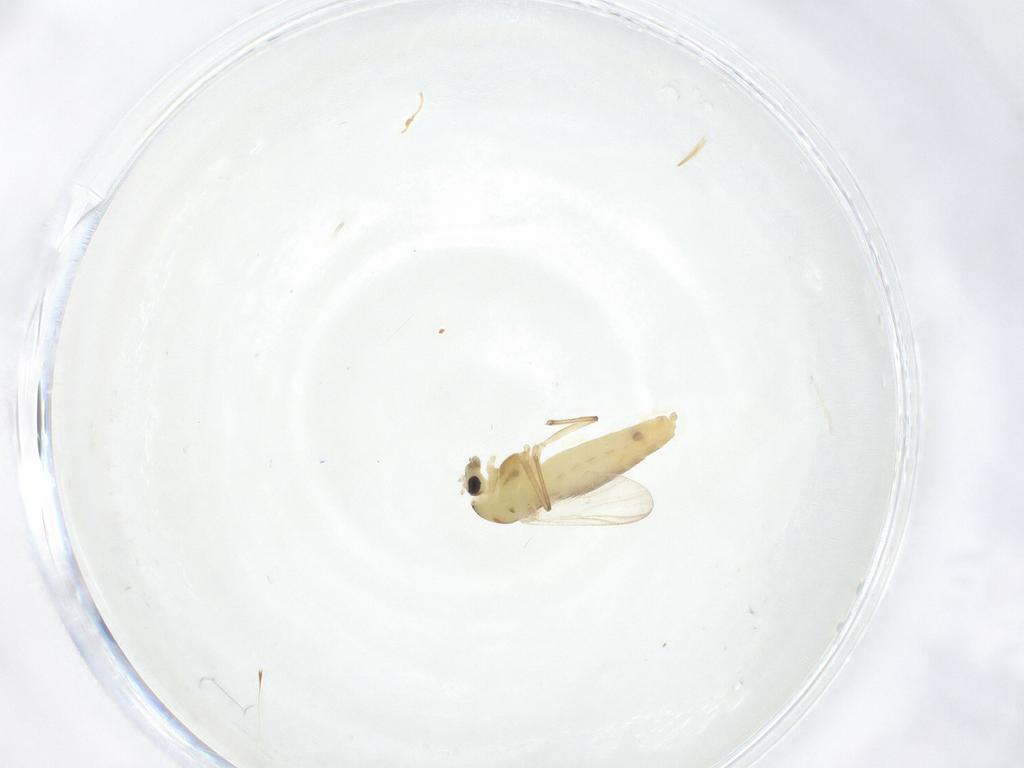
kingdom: Animalia
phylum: Arthropoda
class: Insecta
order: Diptera
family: Chironomidae
